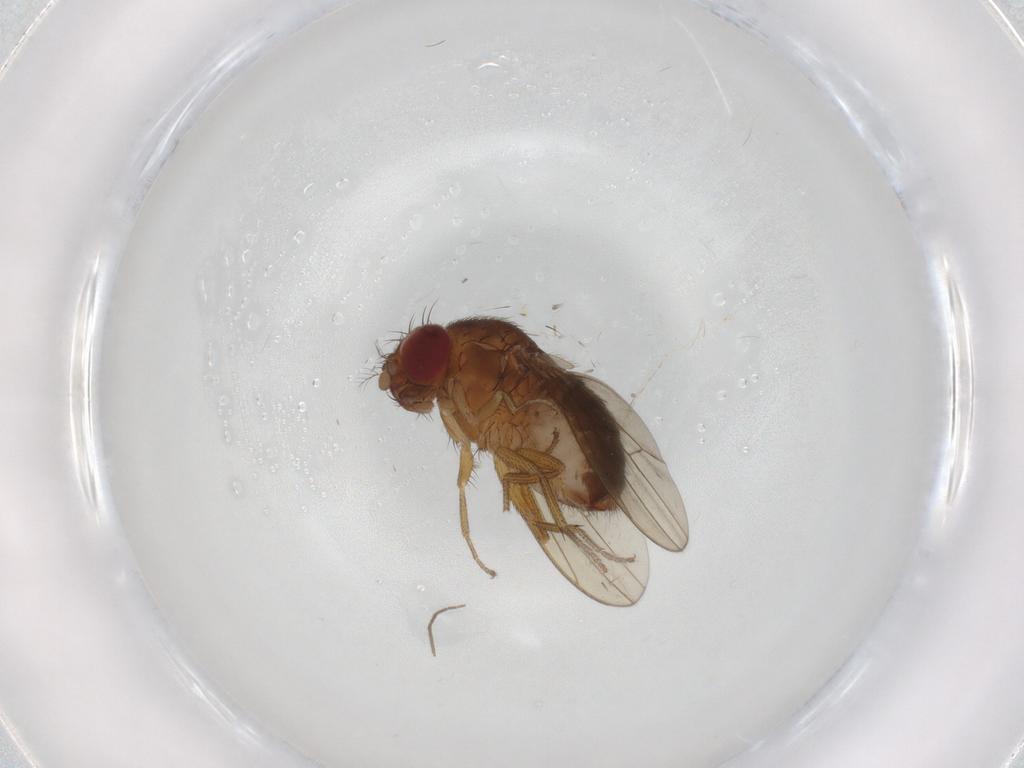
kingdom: Animalia
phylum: Arthropoda
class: Insecta
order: Diptera
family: Drosophilidae
